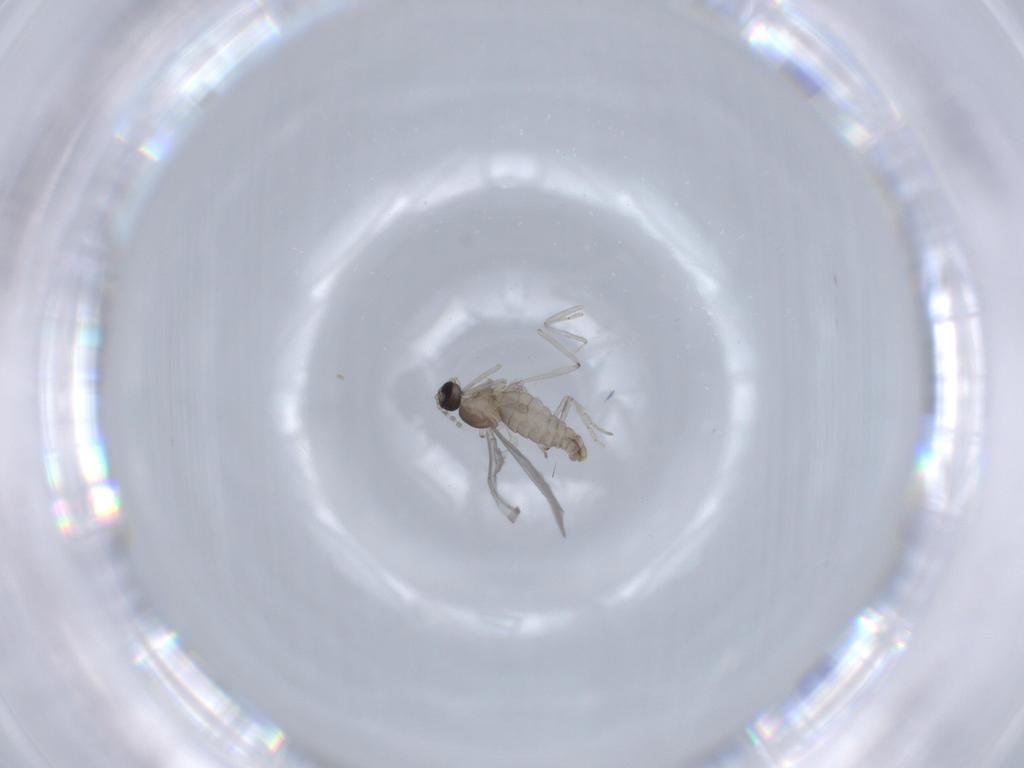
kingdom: Animalia
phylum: Arthropoda
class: Insecta
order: Diptera
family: Cecidomyiidae
